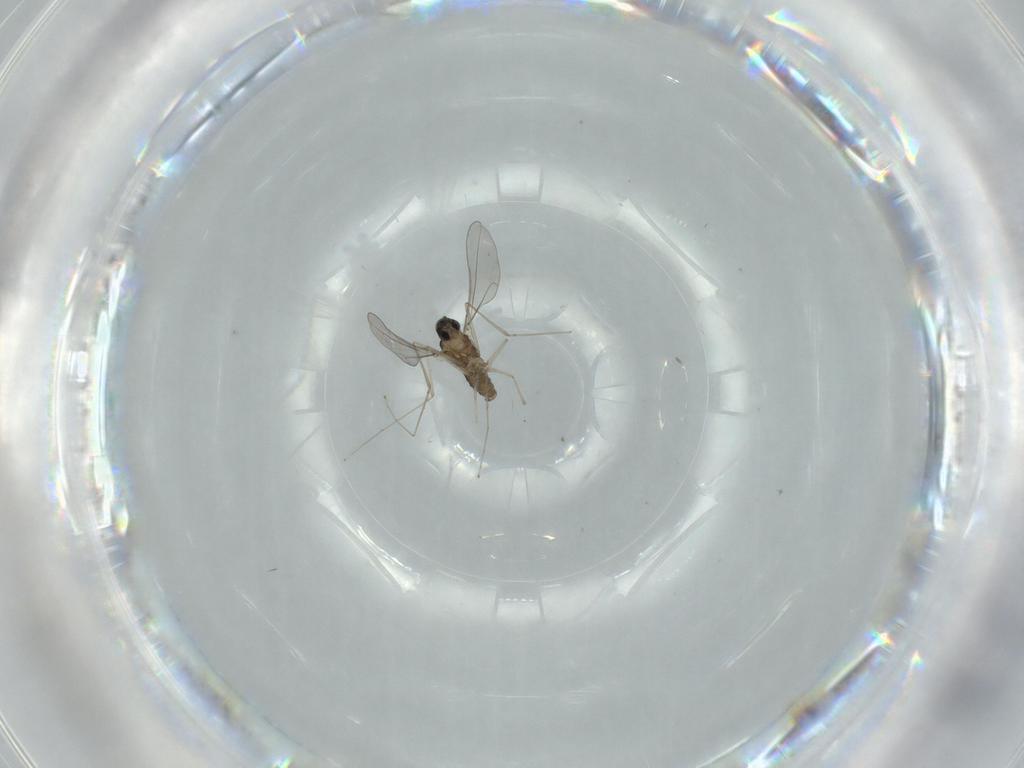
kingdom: Animalia
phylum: Arthropoda
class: Insecta
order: Diptera
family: Cecidomyiidae
